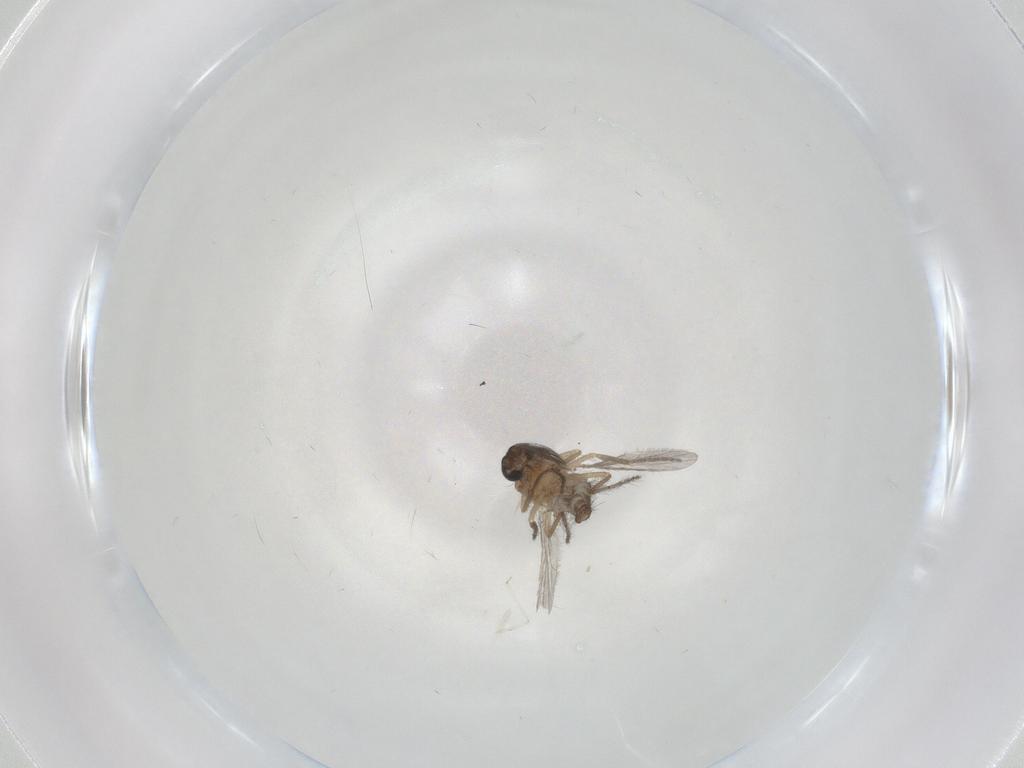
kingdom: Animalia
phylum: Arthropoda
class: Insecta
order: Diptera
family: Ceratopogonidae
